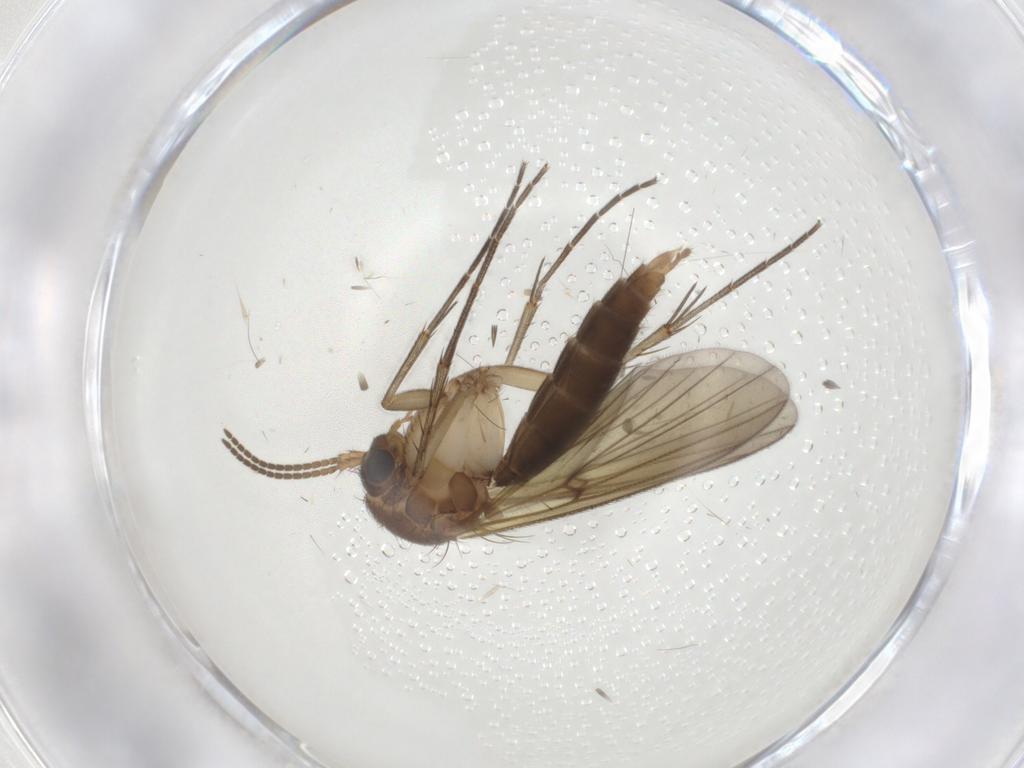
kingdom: Animalia
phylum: Arthropoda
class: Insecta
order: Diptera
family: Mycetophilidae
